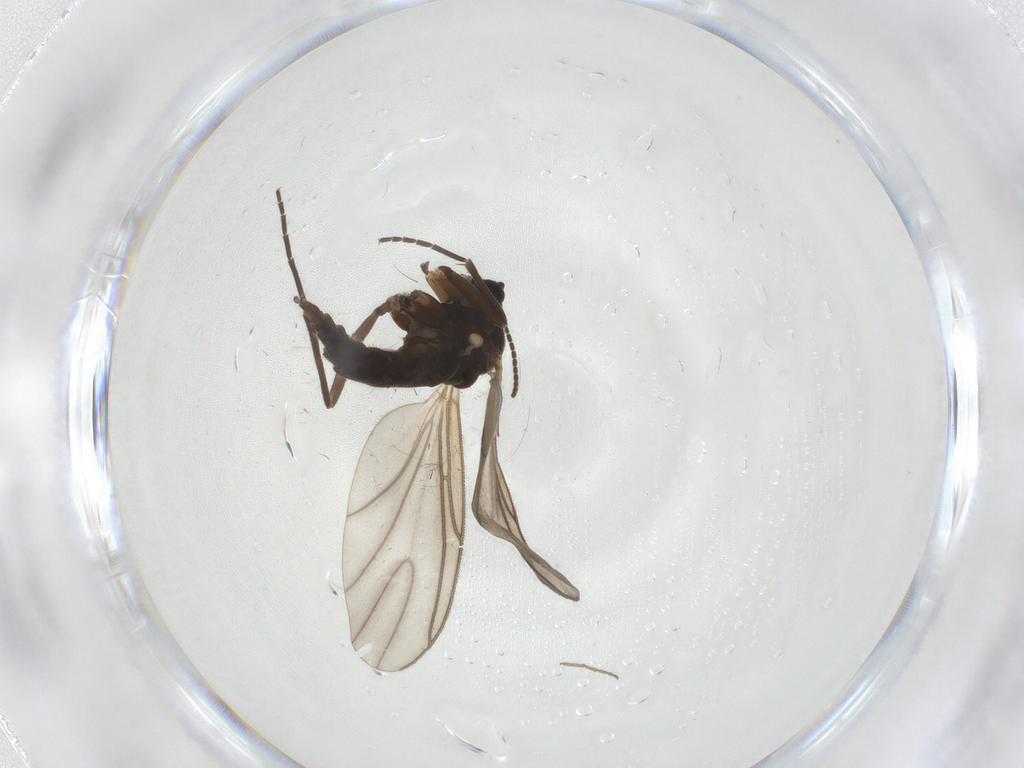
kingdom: Animalia
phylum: Arthropoda
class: Insecta
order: Diptera
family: Sciaridae
